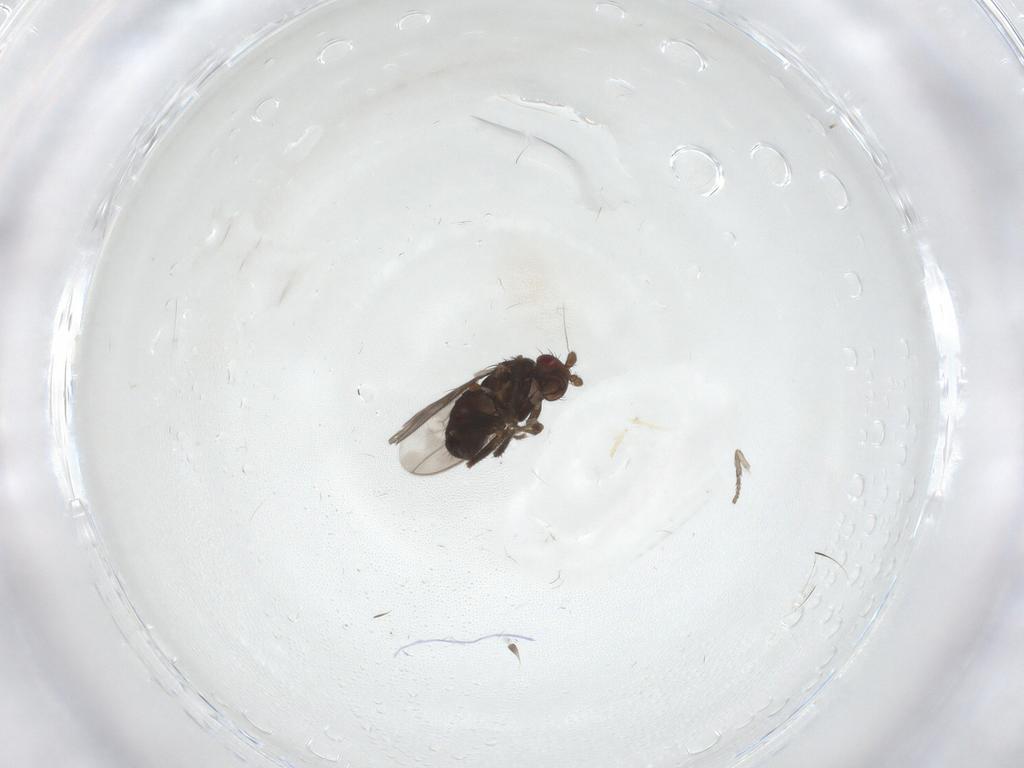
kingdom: Animalia
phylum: Arthropoda
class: Insecta
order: Diptera
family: Sphaeroceridae
